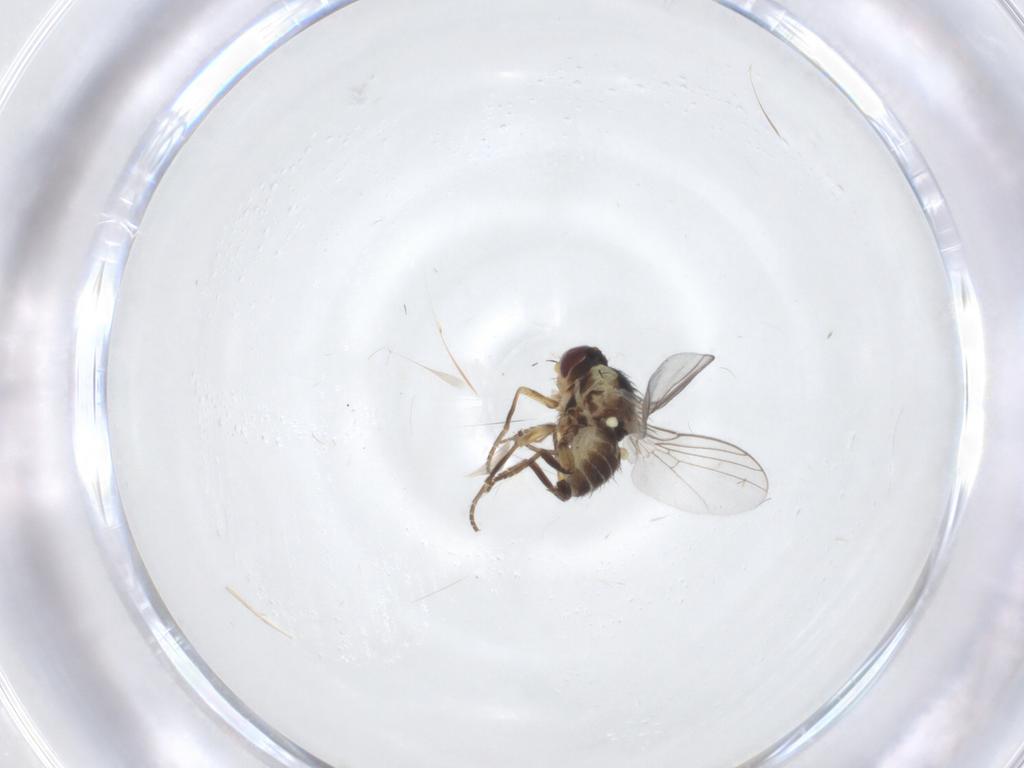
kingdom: Animalia
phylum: Arthropoda
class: Insecta
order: Diptera
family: Agromyzidae
